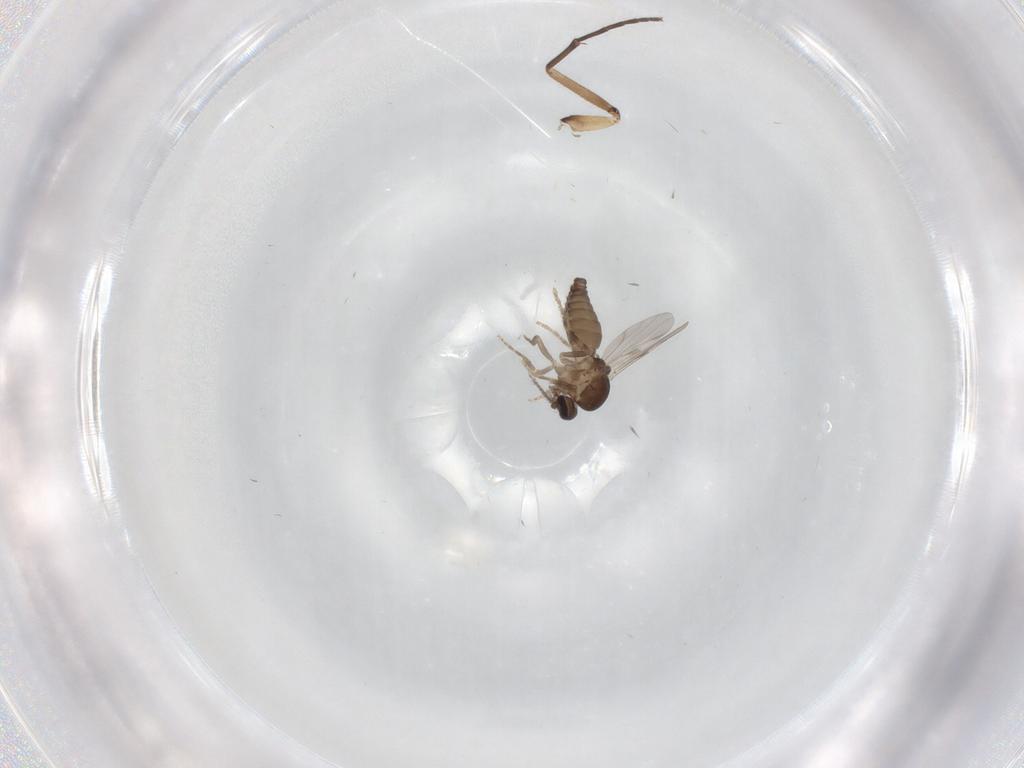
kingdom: Animalia
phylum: Arthropoda
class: Insecta
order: Diptera
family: Ceratopogonidae
